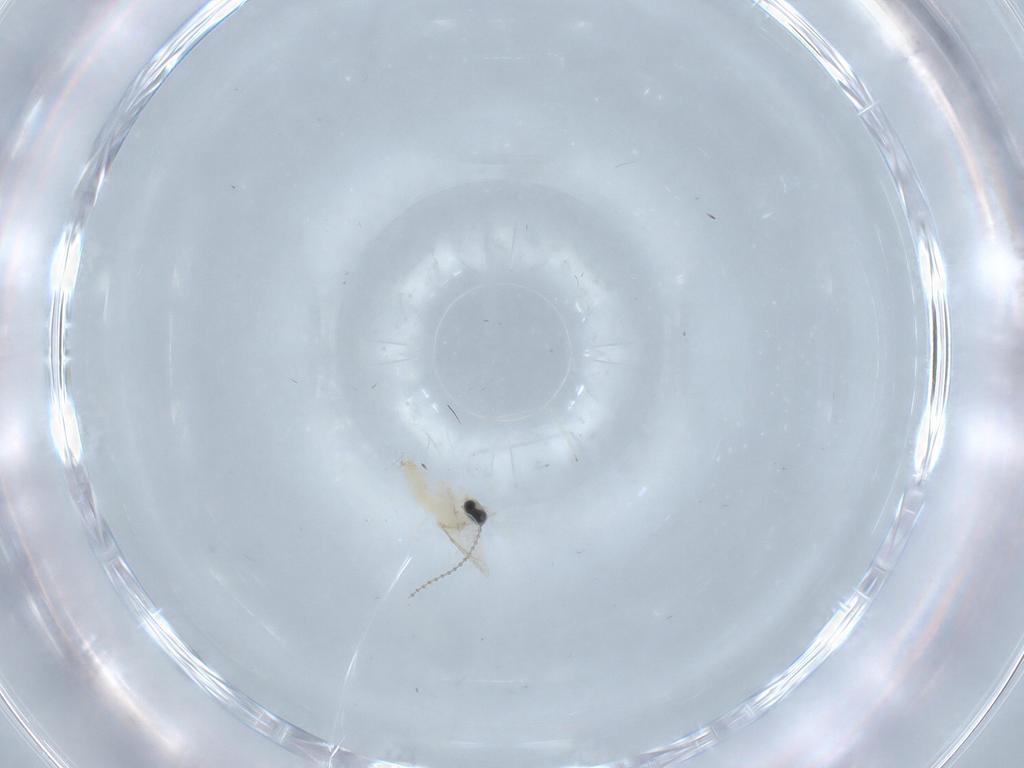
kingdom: Animalia
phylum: Arthropoda
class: Insecta
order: Diptera
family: Cecidomyiidae
